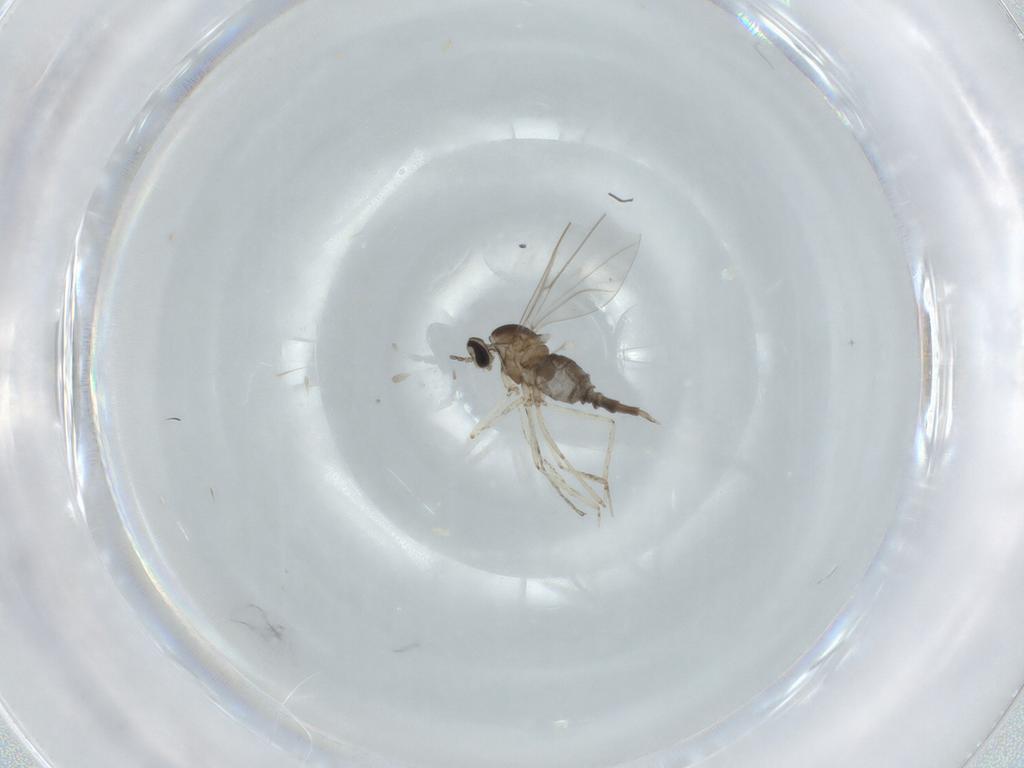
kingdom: Animalia
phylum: Arthropoda
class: Insecta
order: Diptera
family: Cecidomyiidae
